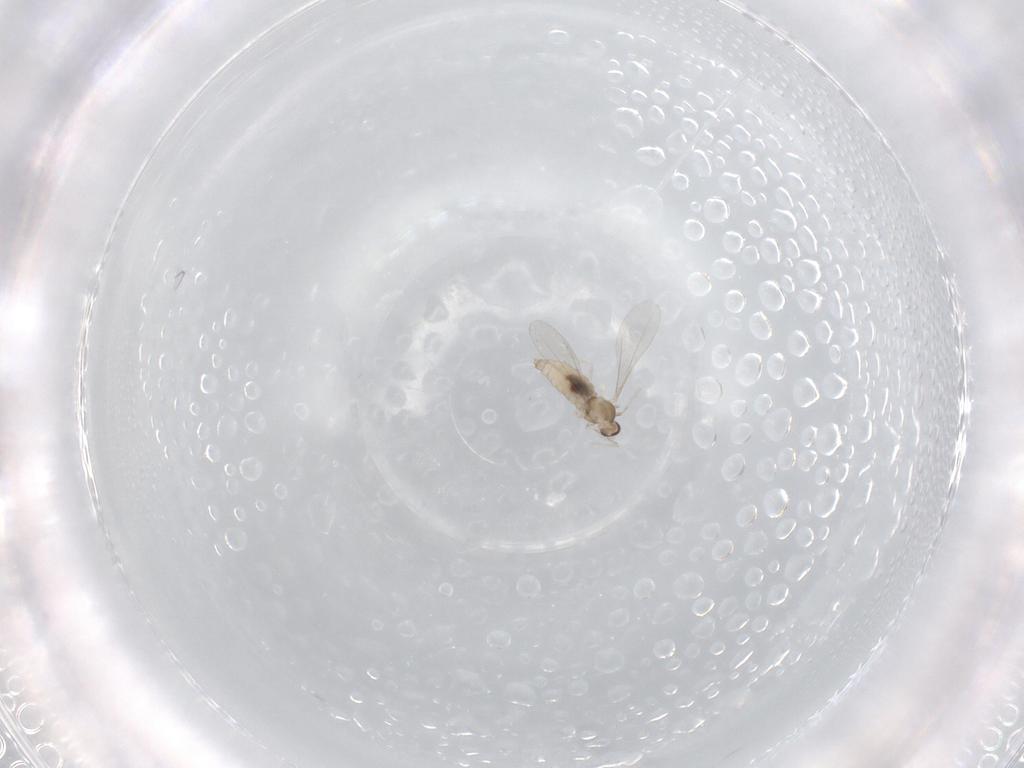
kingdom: Animalia
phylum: Arthropoda
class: Insecta
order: Diptera
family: Cecidomyiidae
